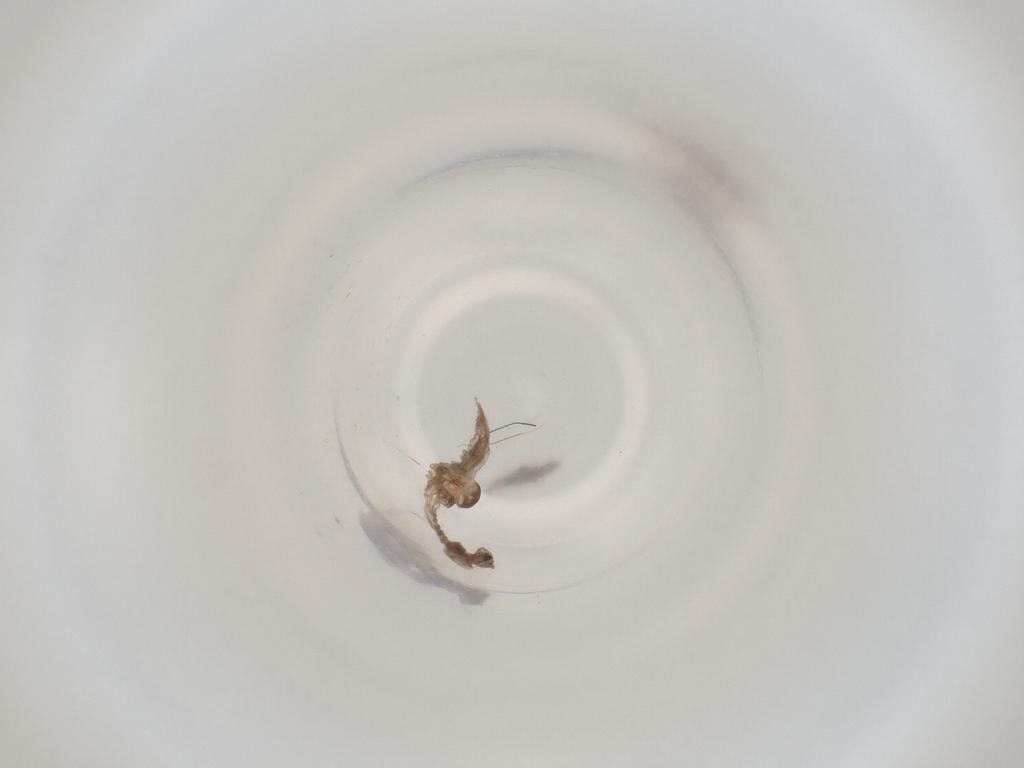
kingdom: Animalia
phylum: Arthropoda
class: Insecta
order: Diptera
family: Cecidomyiidae
